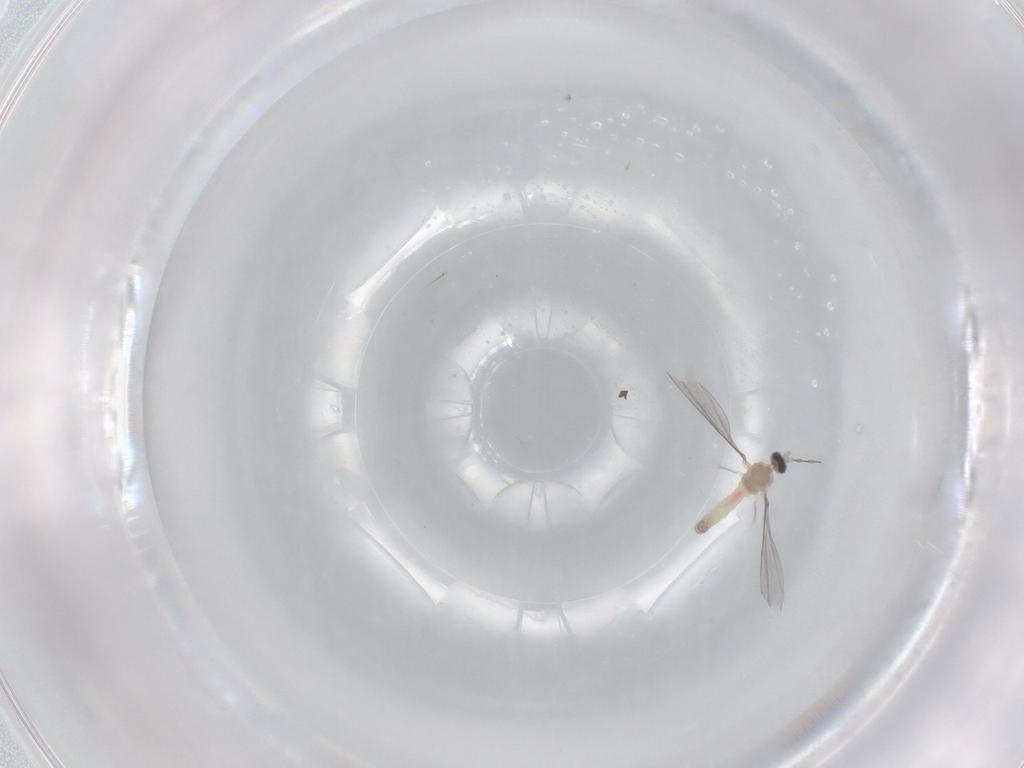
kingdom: Animalia
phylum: Arthropoda
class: Insecta
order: Diptera
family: Cecidomyiidae
